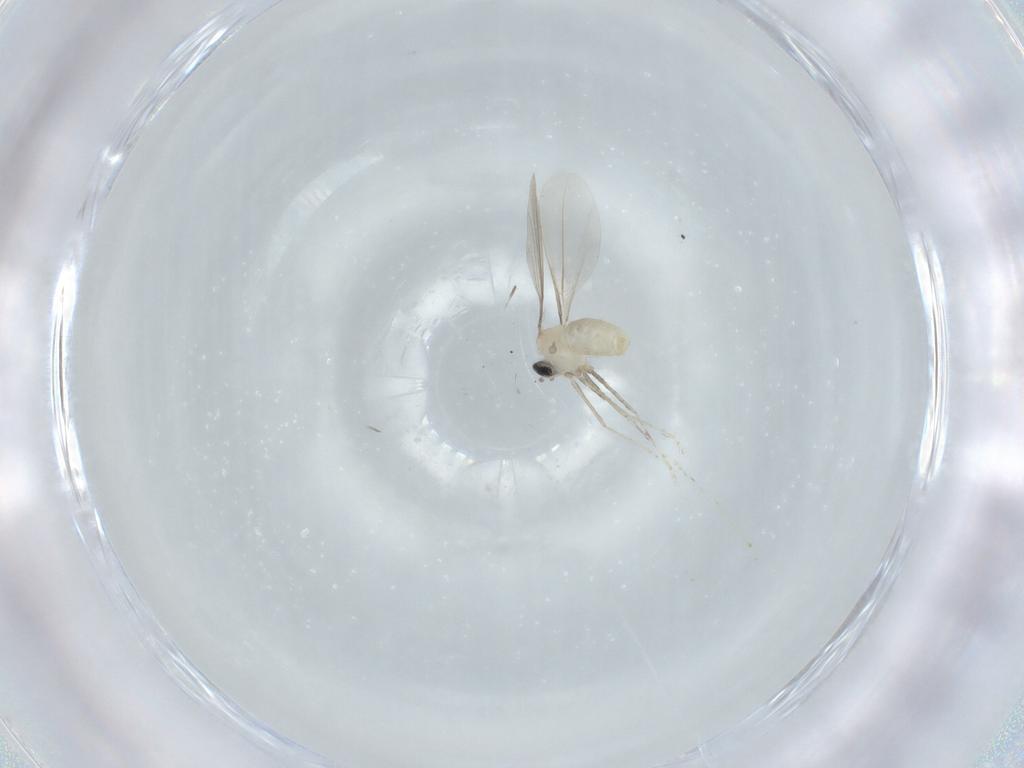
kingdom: Animalia
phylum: Arthropoda
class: Insecta
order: Diptera
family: Cecidomyiidae
